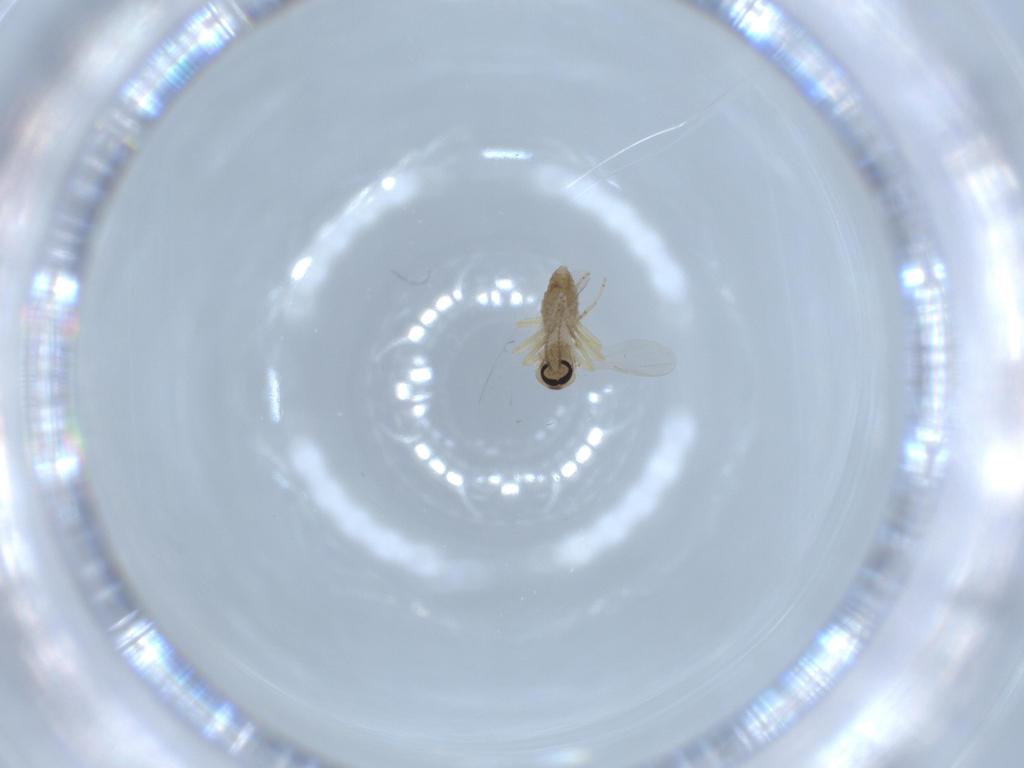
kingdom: Animalia
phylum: Arthropoda
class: Insecta
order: Diptera
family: Ceratopogonidae
